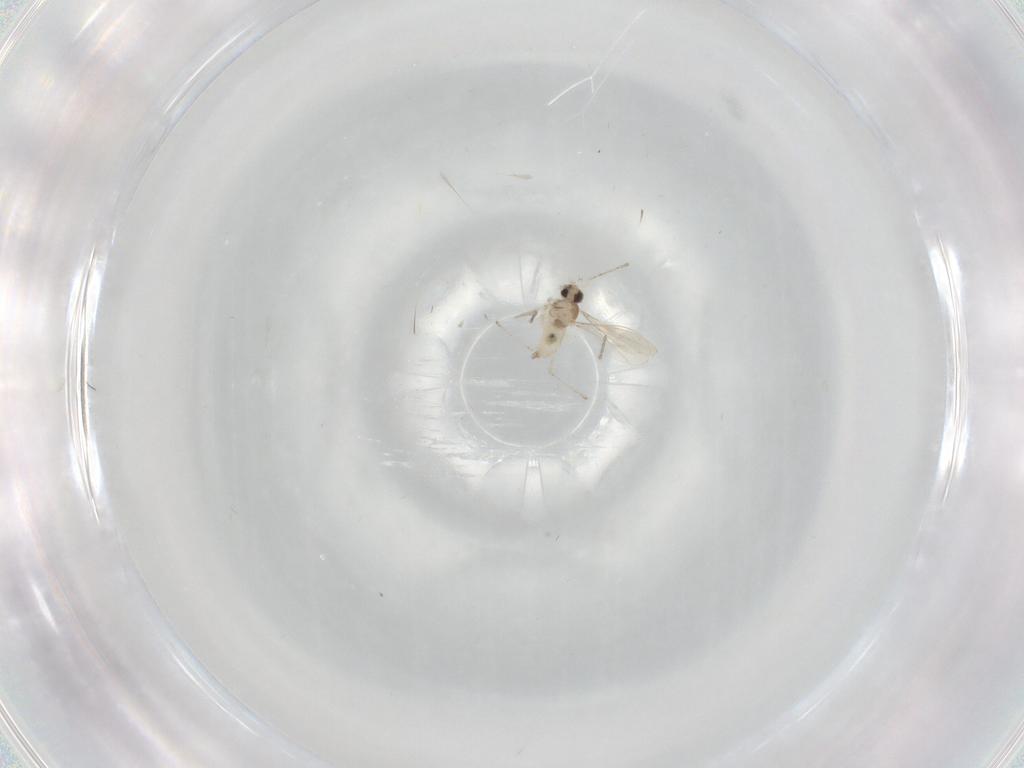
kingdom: Animalia
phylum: Arthropoda
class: Insecta
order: Diptera
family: Cecidomyiidae
